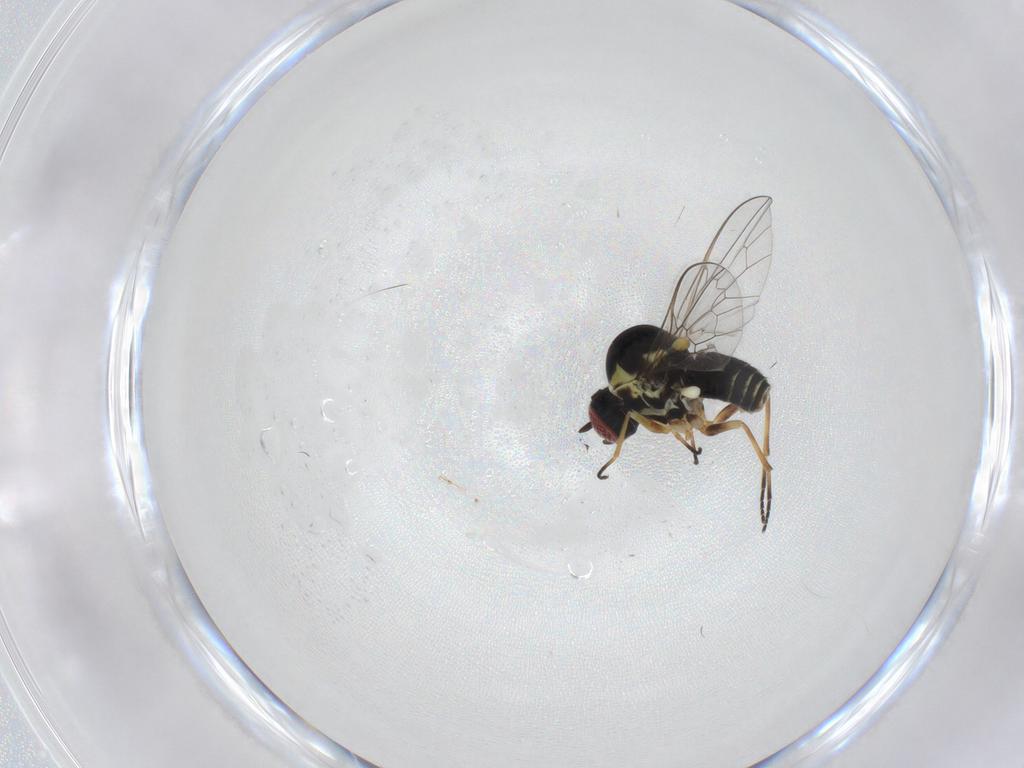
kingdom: Animalia
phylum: Arthropoda
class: Insecta
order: Diptera
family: Bombyliidae
